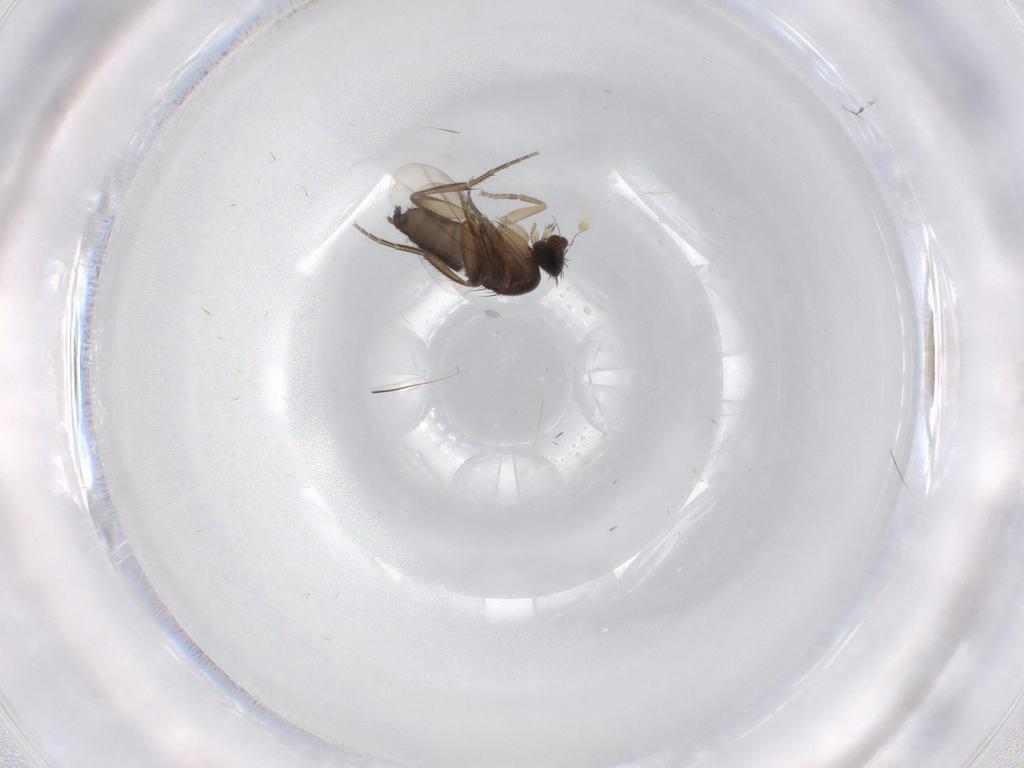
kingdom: Animalia
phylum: Arthropoda
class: Insecta
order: Diptera
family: Phoridae
